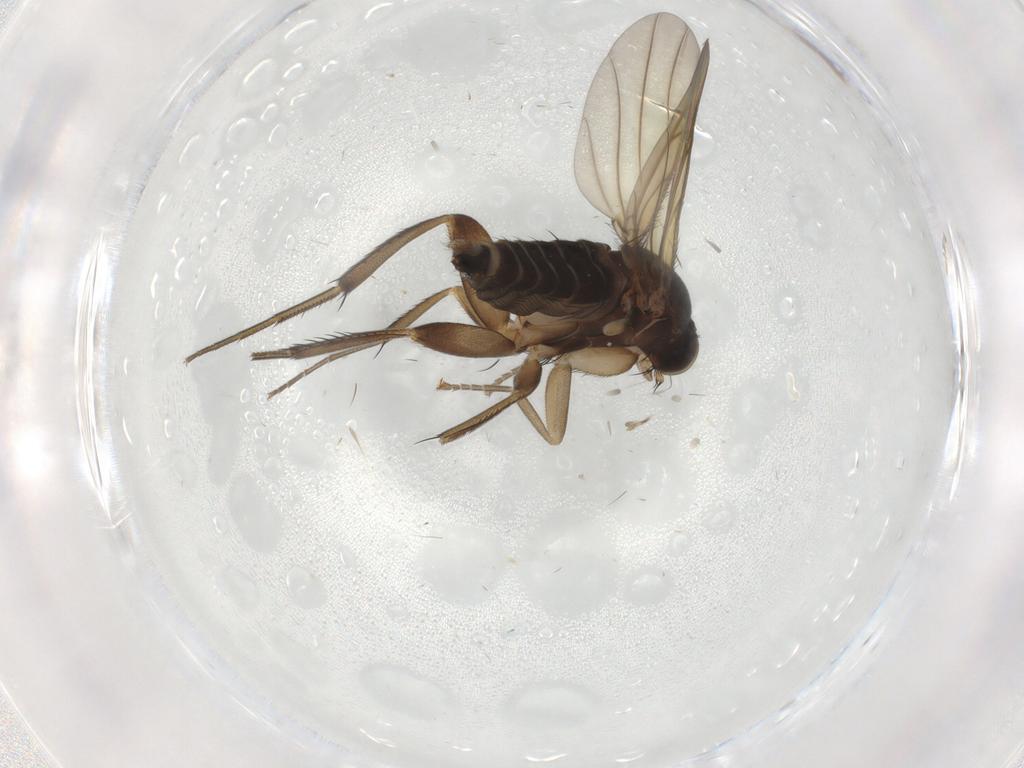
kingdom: Animalia
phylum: Arthropoda
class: Insecta
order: Diptera
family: Phoridae
